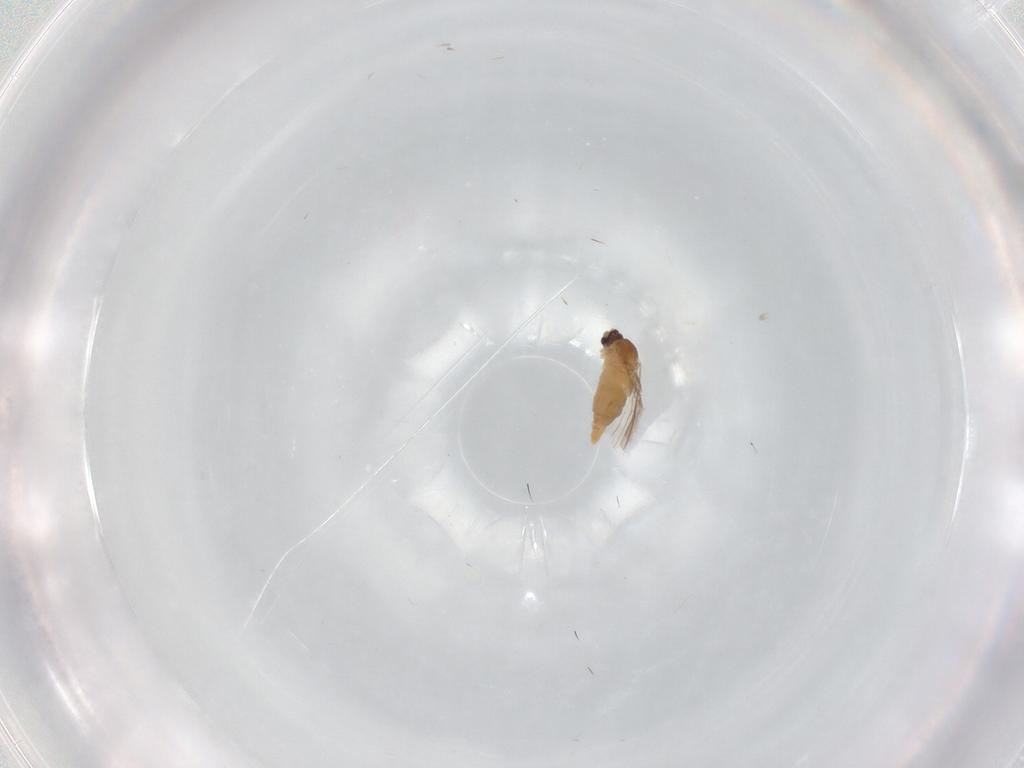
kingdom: Animalia
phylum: Arthropoda
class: Insecta
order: Diptera
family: Cecidomyiidae
